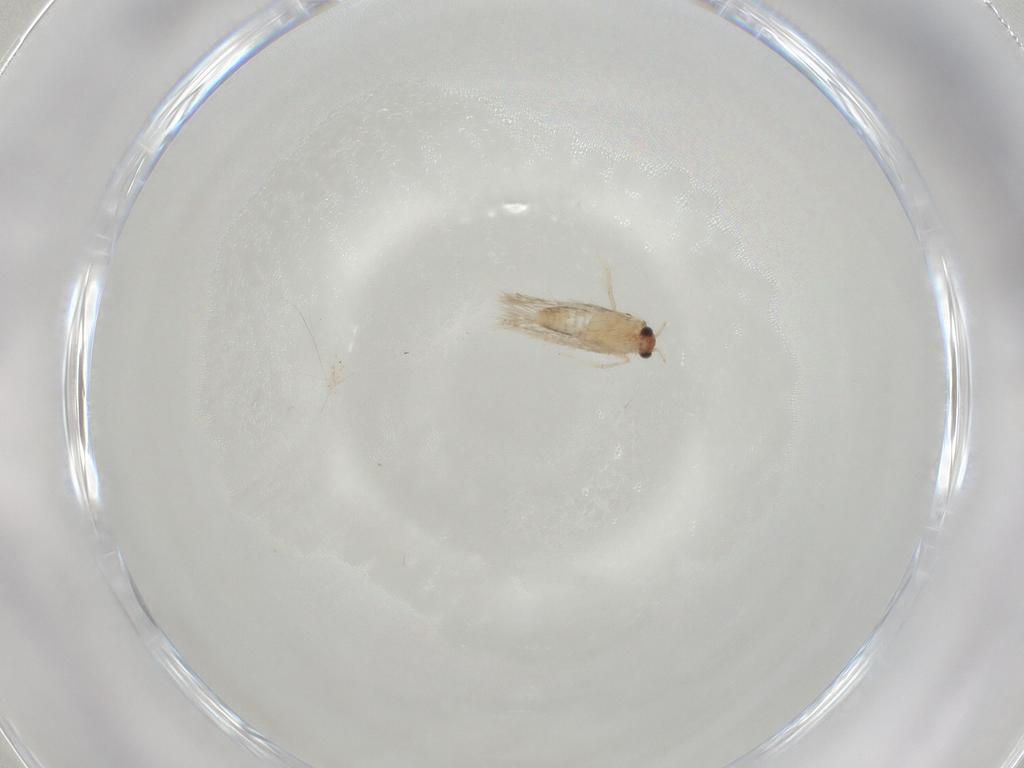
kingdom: Animalia
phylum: Arthropoda
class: Insecta
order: Lepidoptera
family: Nepticulidae
